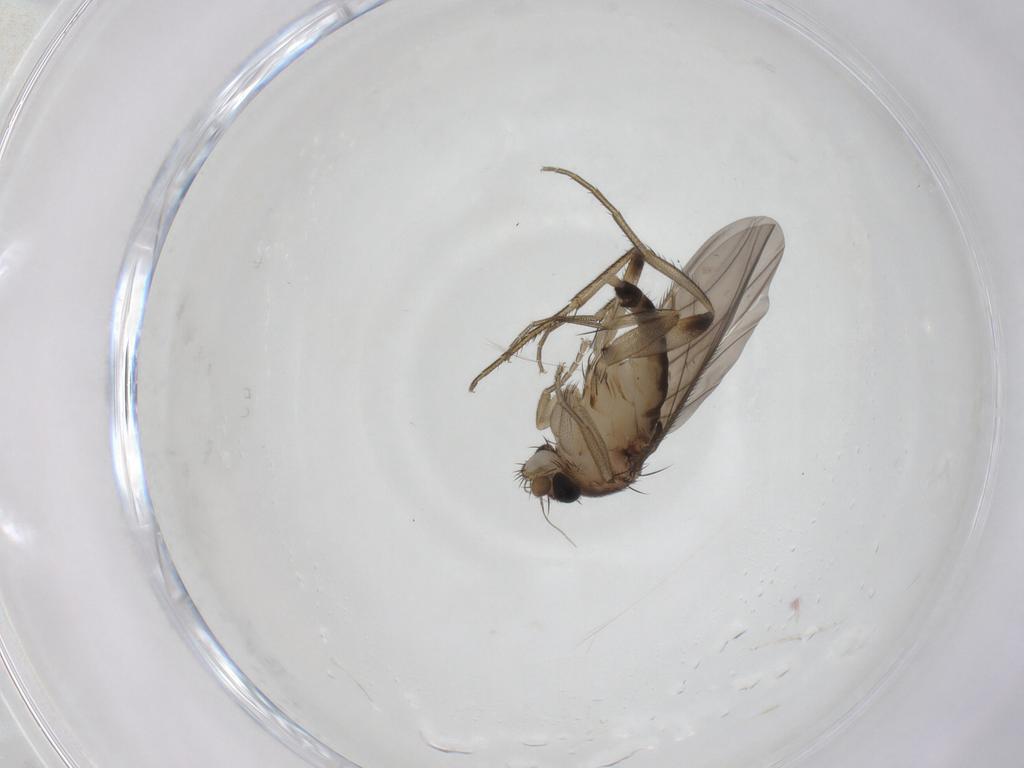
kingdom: Animalia
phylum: Arthropoda
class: Insecta
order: Diptera
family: Phoridae
